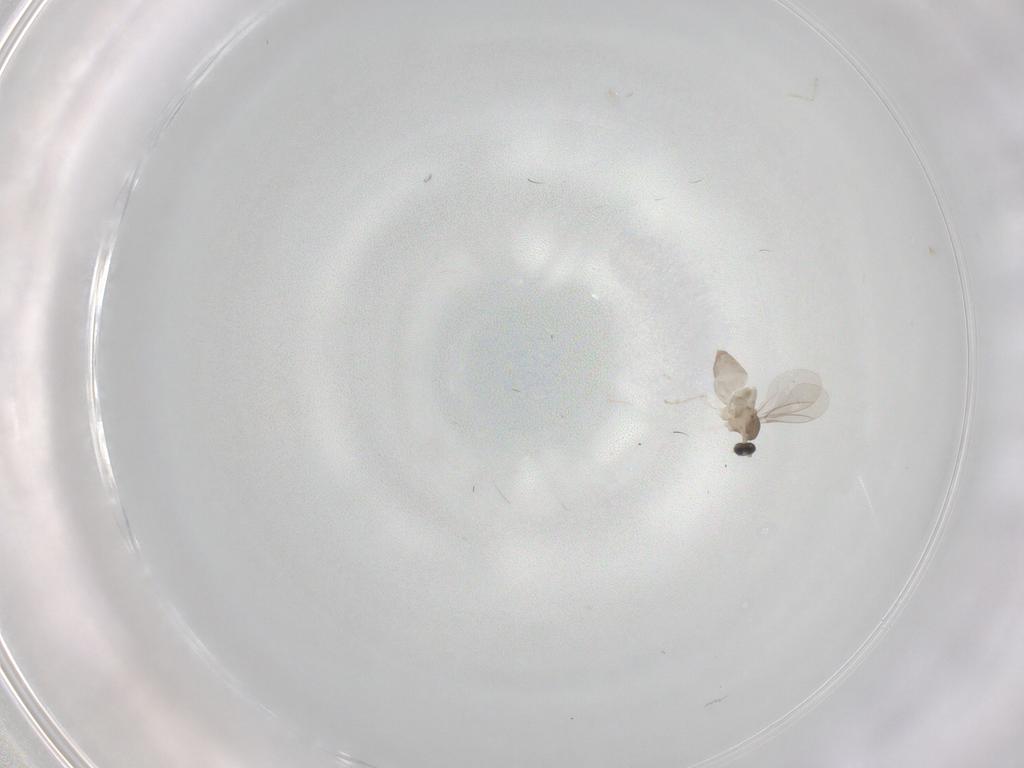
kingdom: Animalia
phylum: Arthropoda
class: Insecta
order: Diptera
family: Cecidomyiidae
